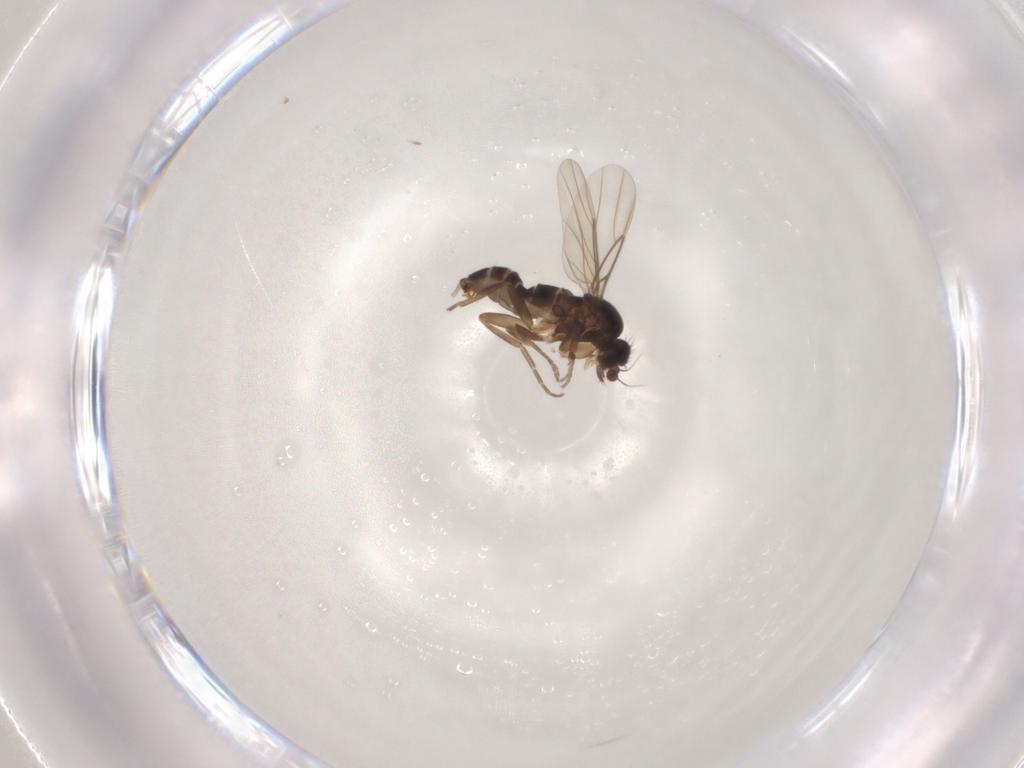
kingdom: Animalia
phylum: Arthropoda
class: Insecta
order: Diptera
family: Phoridae
